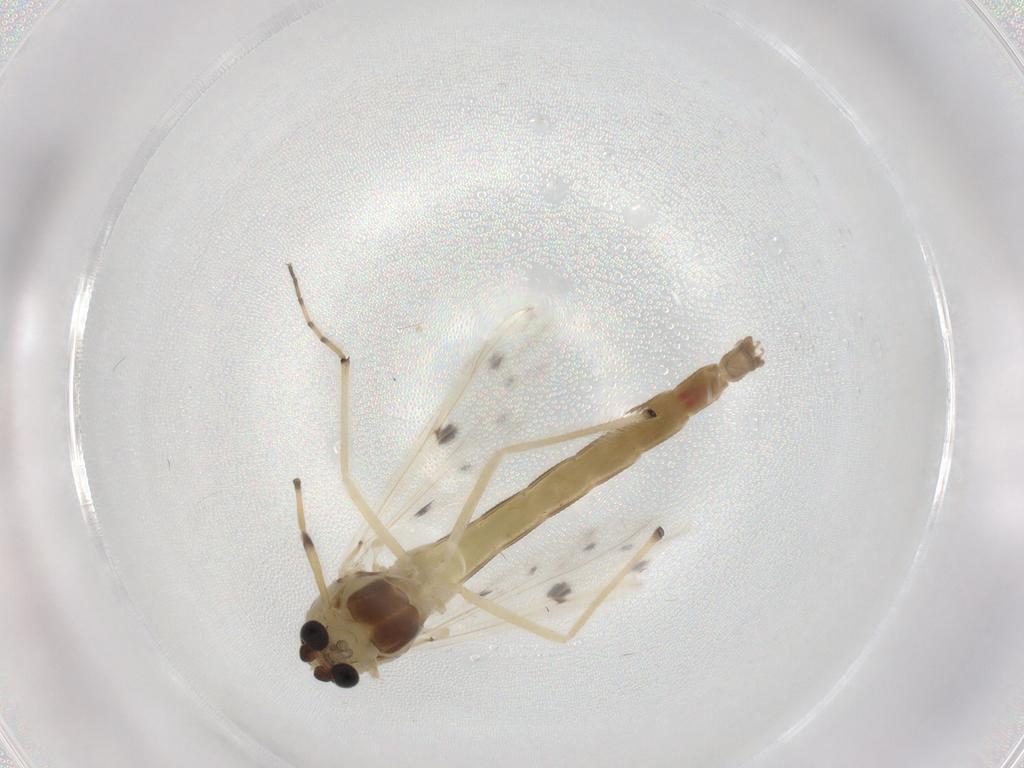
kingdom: Animalia
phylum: Arthropoda
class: Insecta
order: Diptera
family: Chironomidae
